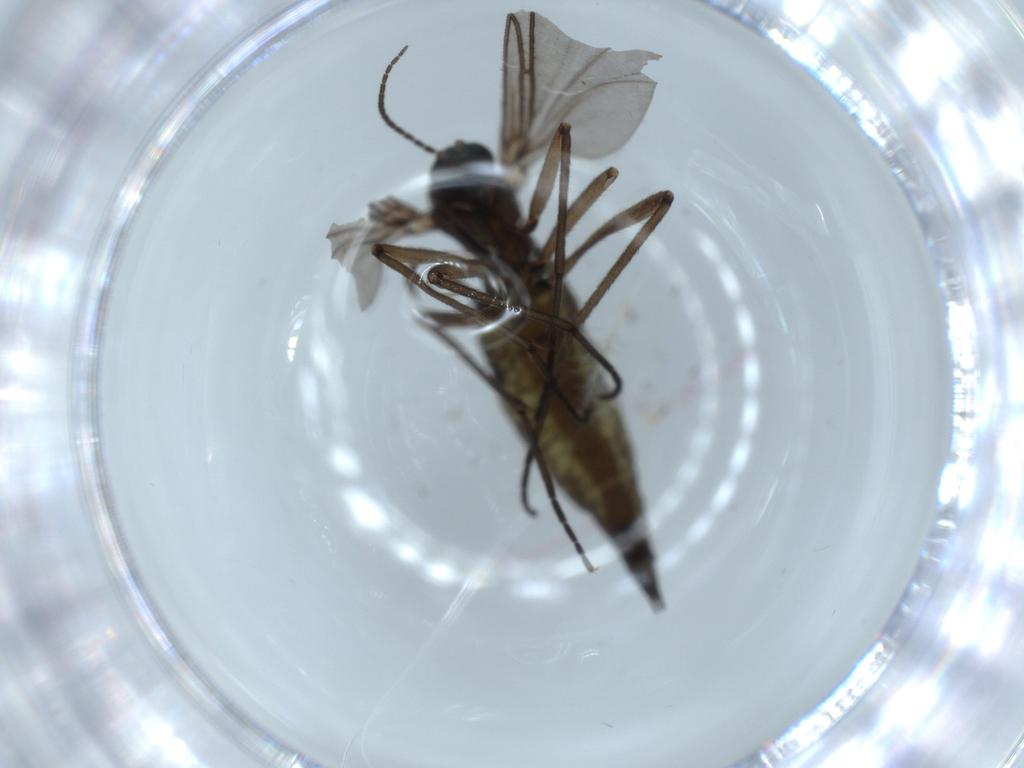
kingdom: Animalia
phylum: Arthropoda
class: Insecta
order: Diptera
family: Sciaridae
